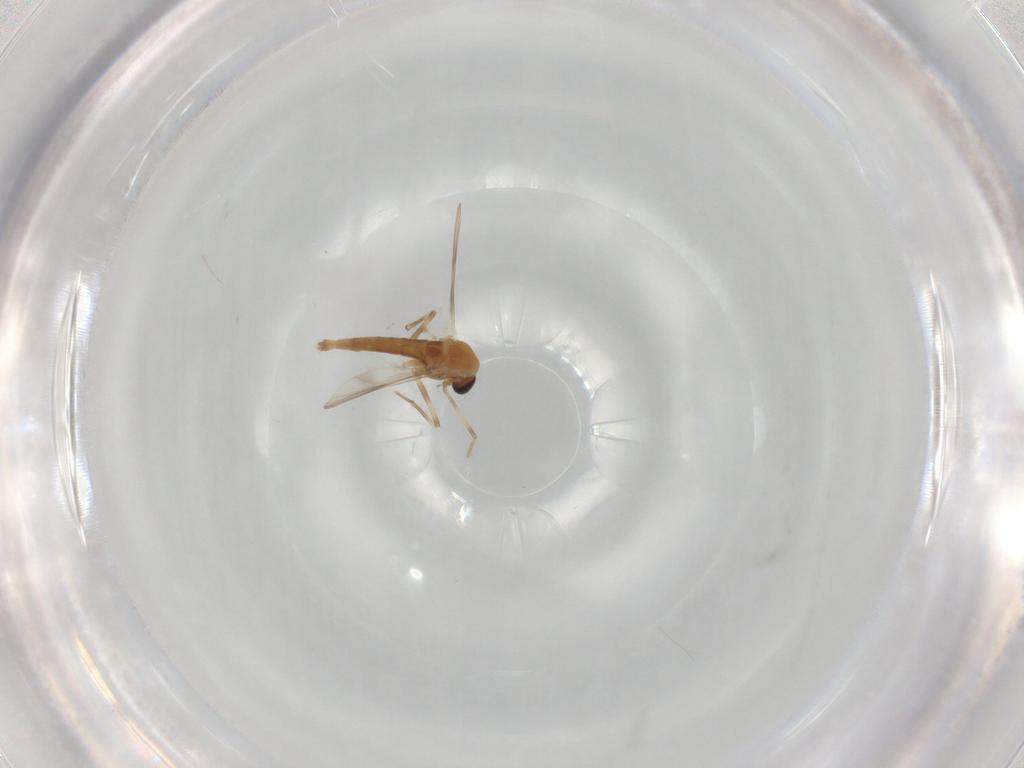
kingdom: Animalia
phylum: Arthropoda
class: Insecta
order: Diptera
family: Chironomidae
